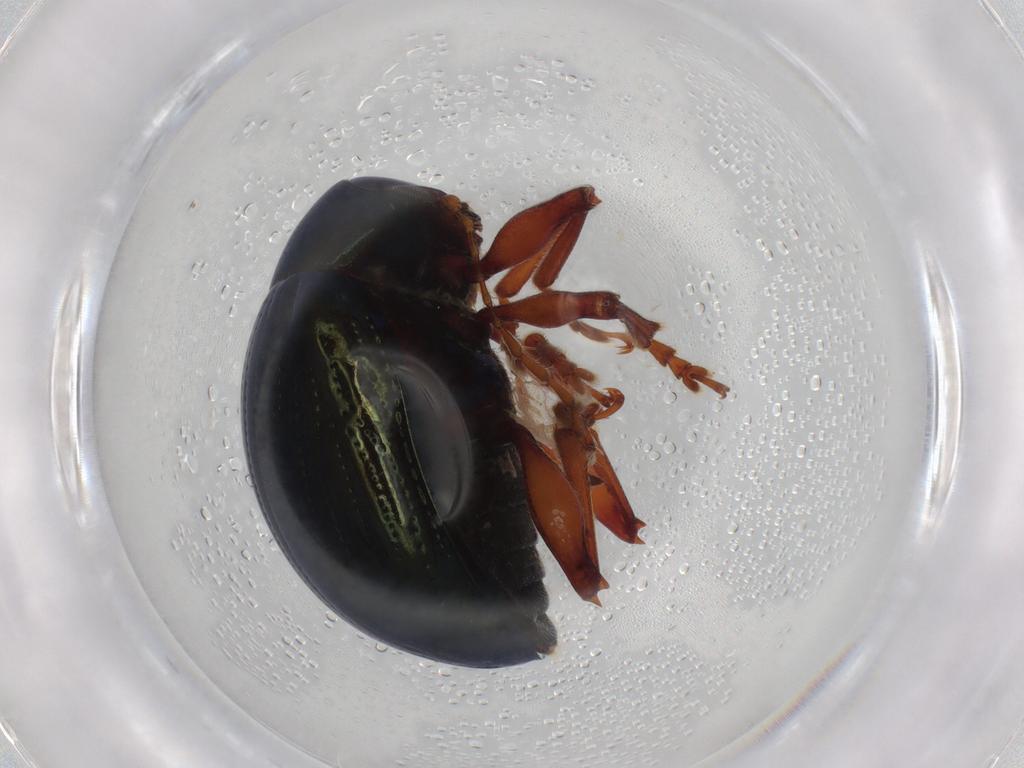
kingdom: Animalia
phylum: Arthropoda
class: Insecta
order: Coleoptera
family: Chrysomelidae
